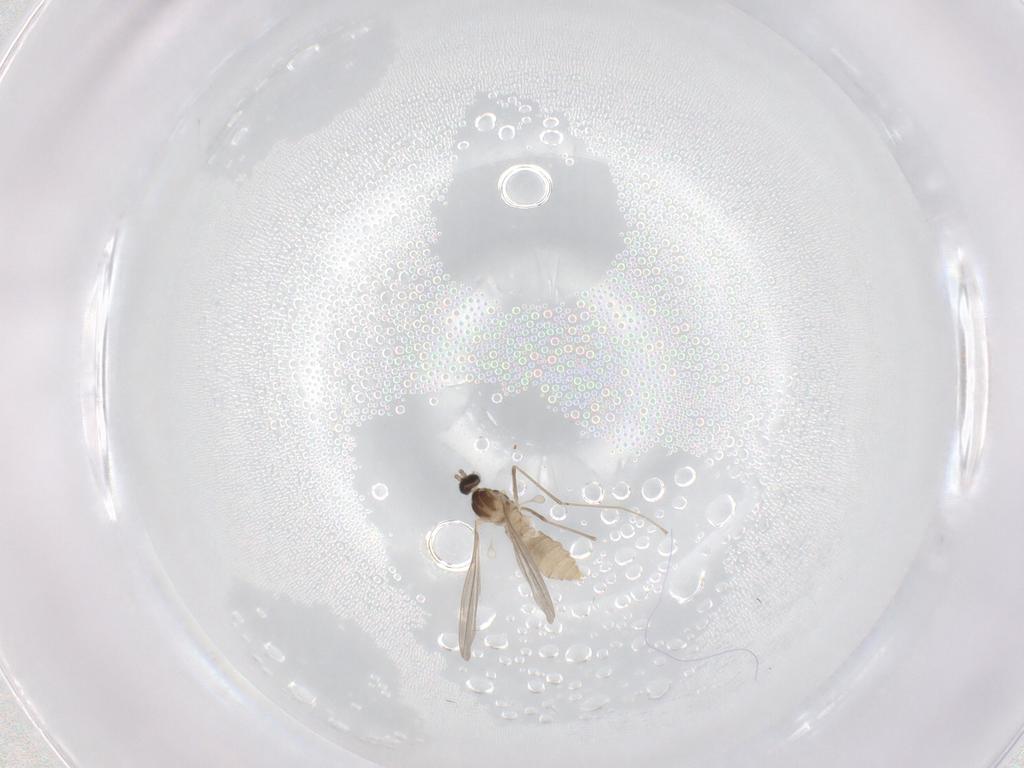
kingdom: Animalia
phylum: Arthropoda
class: Insecta
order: Diptera
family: Cecidomyiidae
